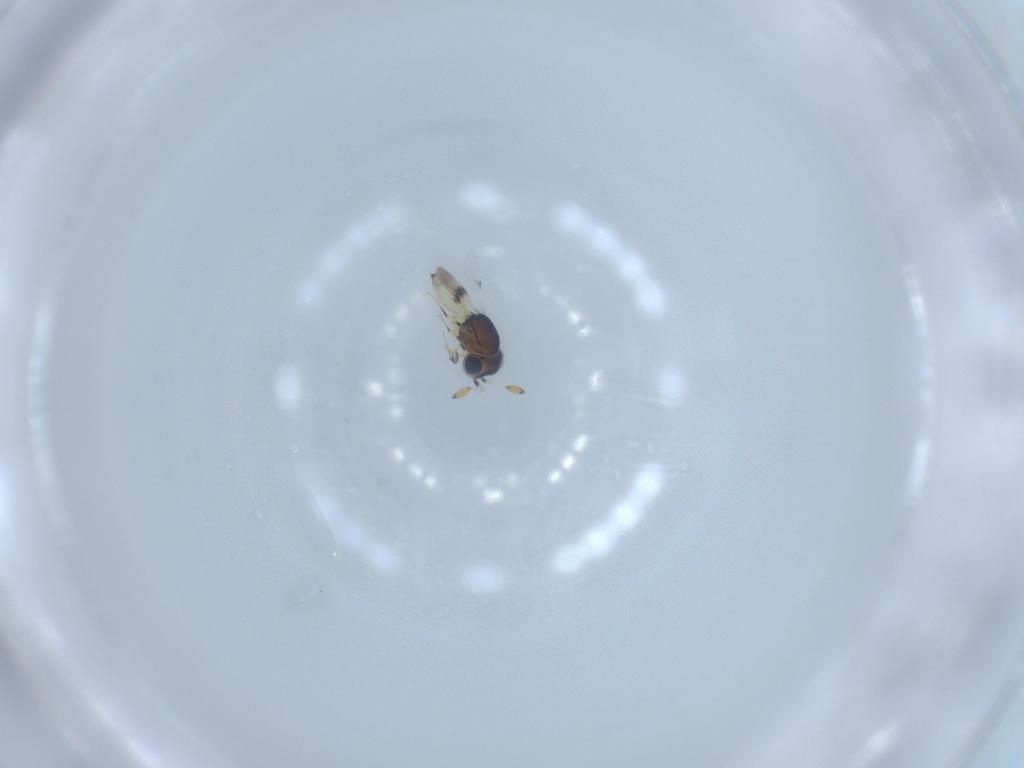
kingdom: Animalia
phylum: Arthropoda
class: Insecta
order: Hymenoptera
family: Scelionidae
